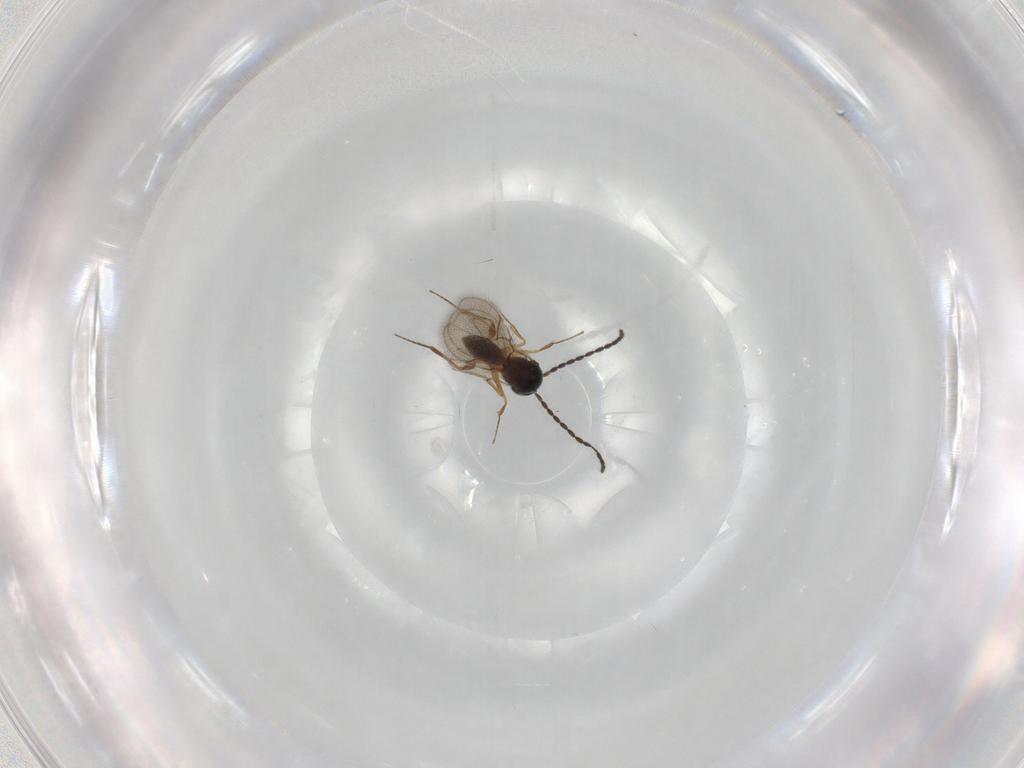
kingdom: Animalia
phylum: Arthropoda
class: Insecta
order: Hymenoptera
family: Figitidae
